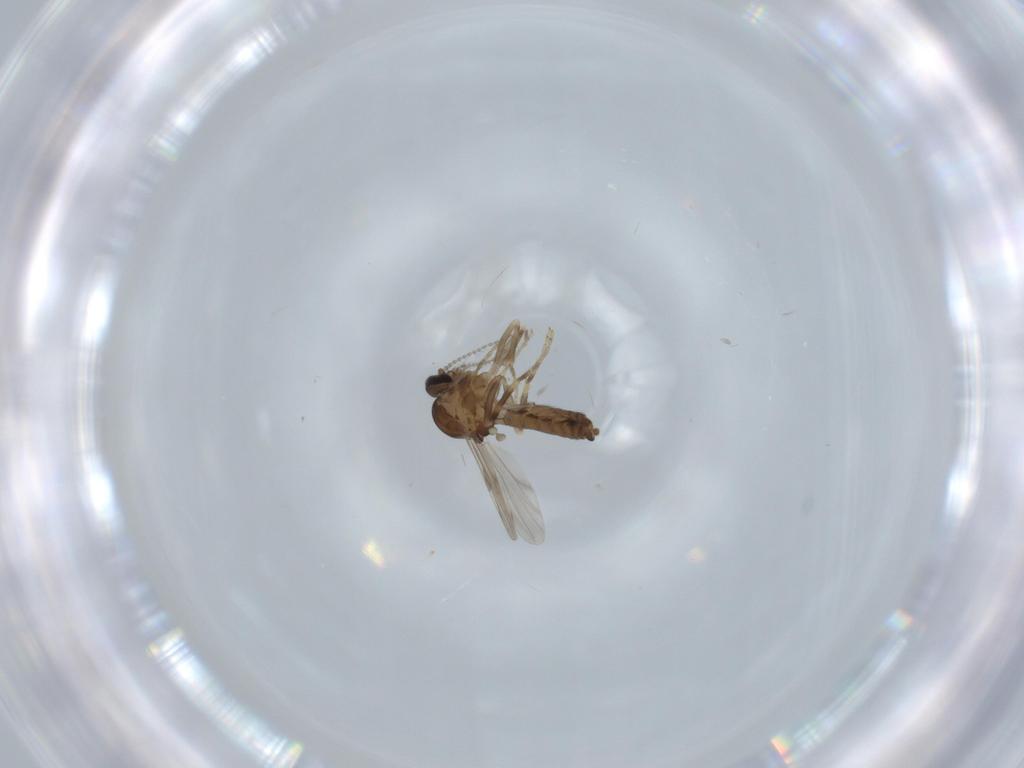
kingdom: Animalia
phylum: Arthropoda
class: Insecta
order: Diptera
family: Ceratopogonidae
